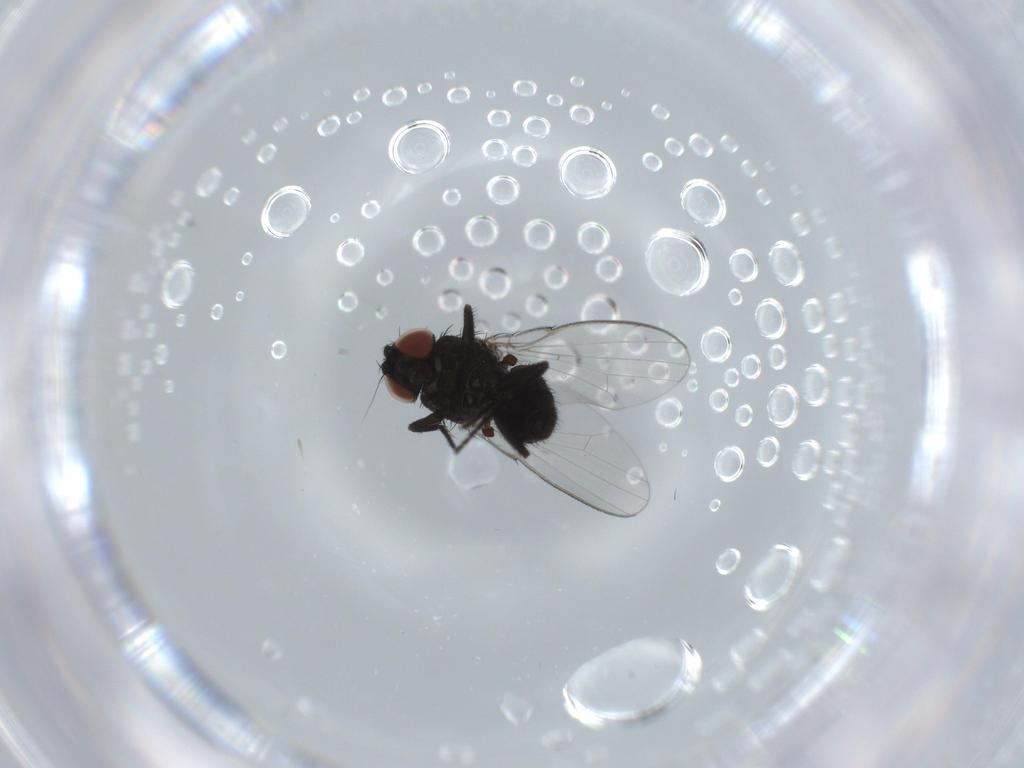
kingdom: Animalia
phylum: Arthropoda
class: Insecta
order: Diptera
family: Milichiidae
